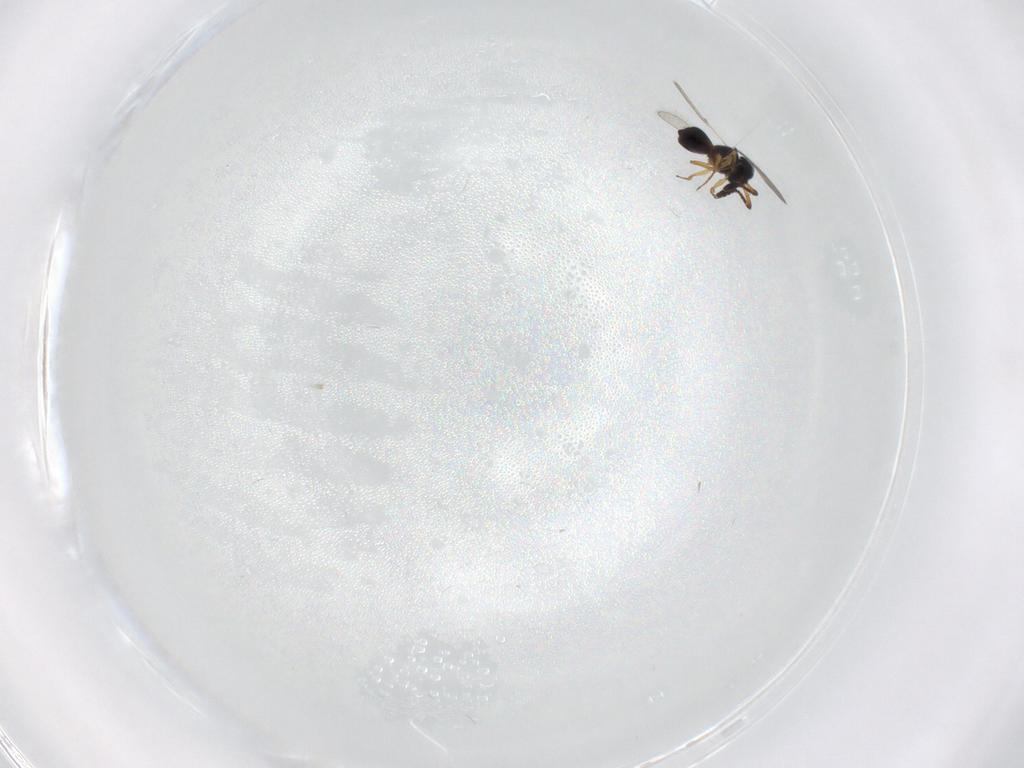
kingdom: Animalia
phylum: Arthropoda
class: Insecta
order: Hymenoptera
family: Scelionidae
